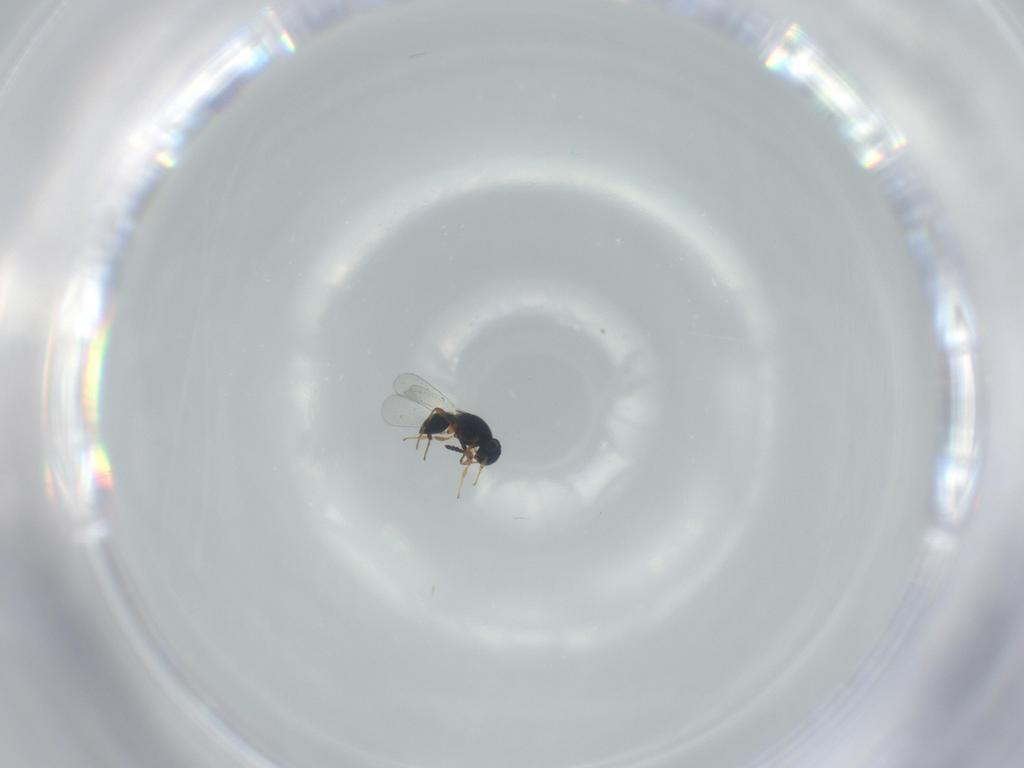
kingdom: Animalia
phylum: Arthropoda
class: Insecta
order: Hymenoptera
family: Platygastridae
